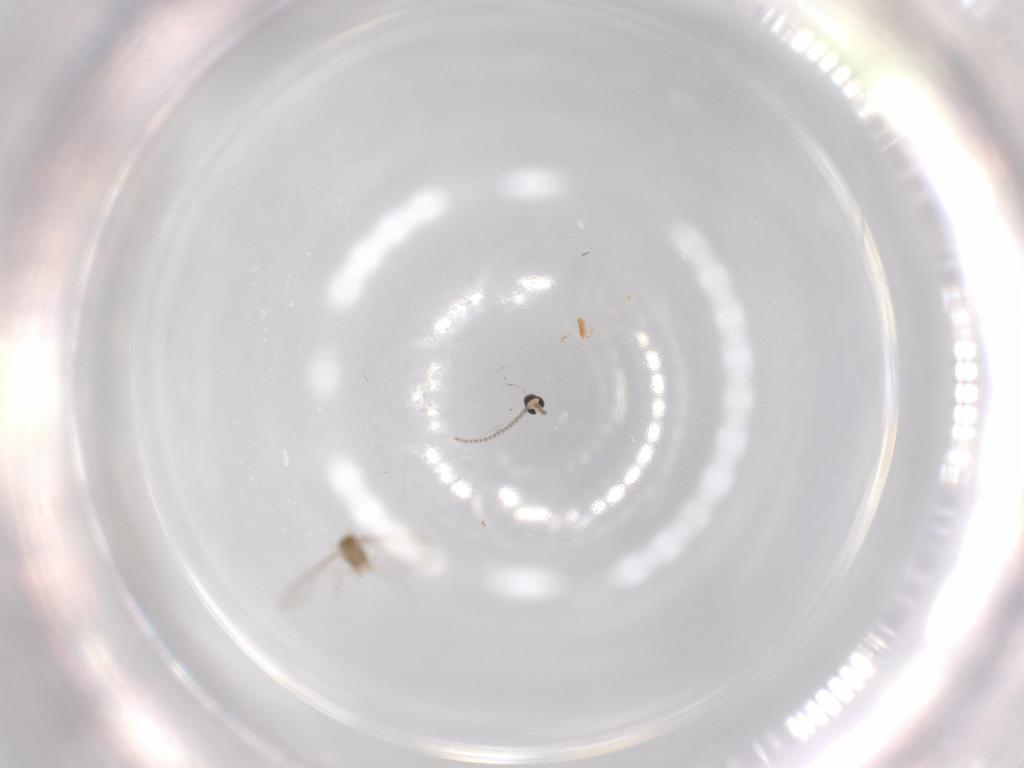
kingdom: Animalia
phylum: Arthropoda
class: Insecta
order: Diptera
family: Cecidomyiidae
